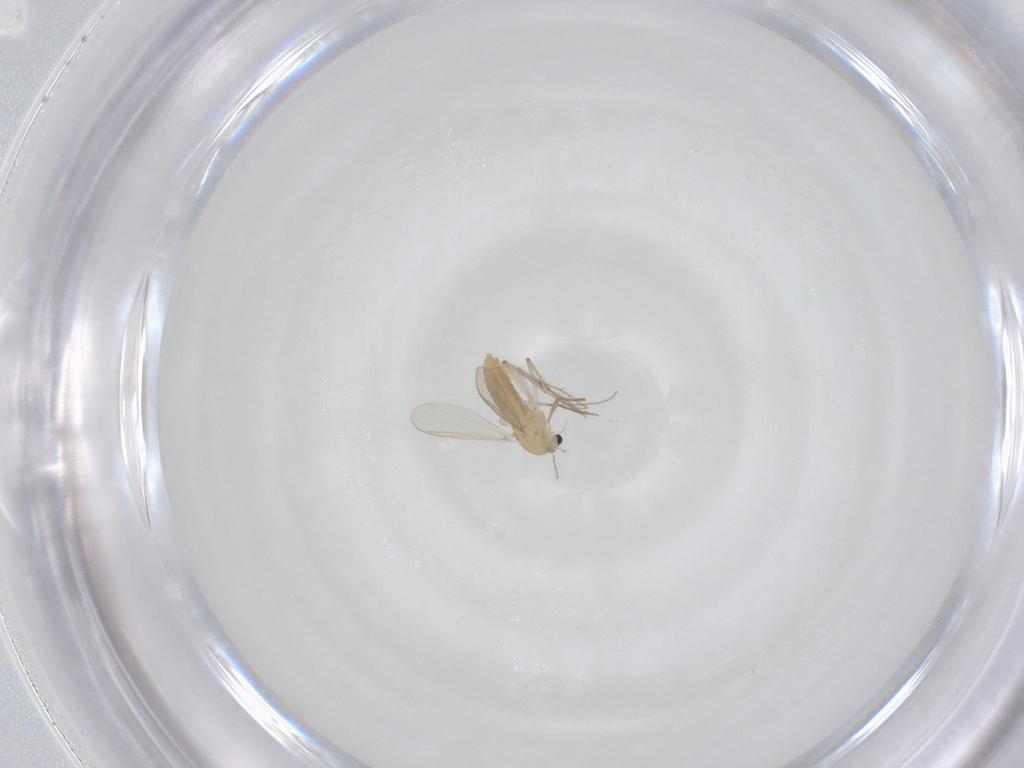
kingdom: Animalia
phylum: Arthropoda
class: Insecta
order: Diptera
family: Chironomidae
